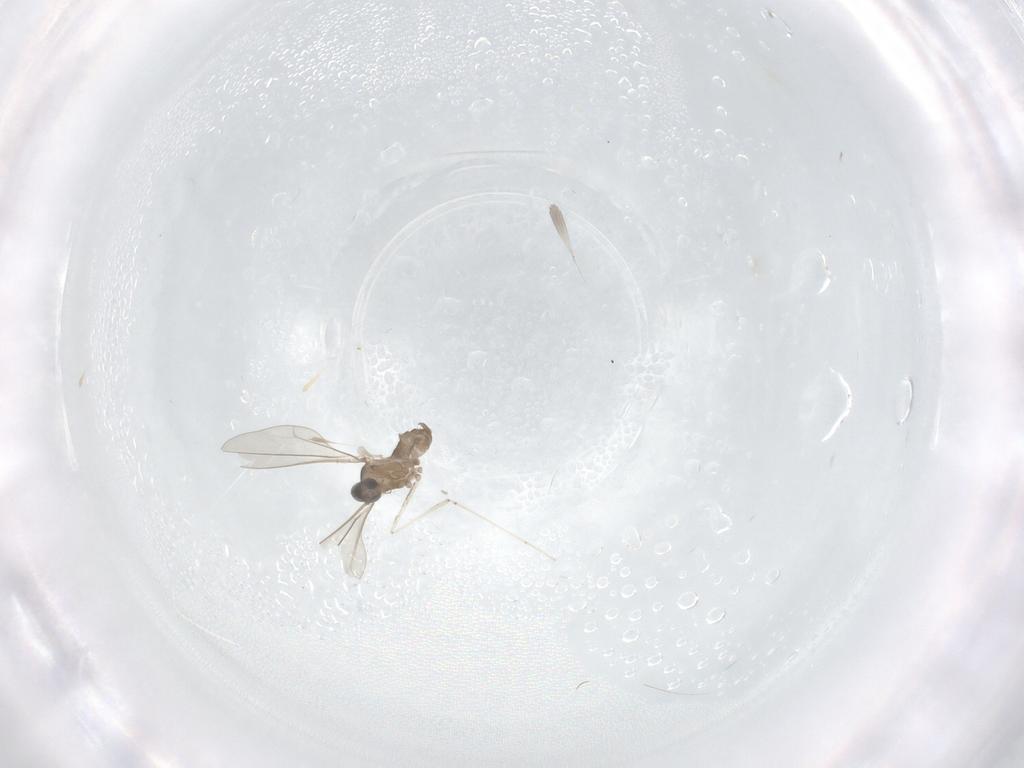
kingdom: Animalia
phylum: Arthropoda
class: Insecta
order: Diptera
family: Cecidomyiidae
